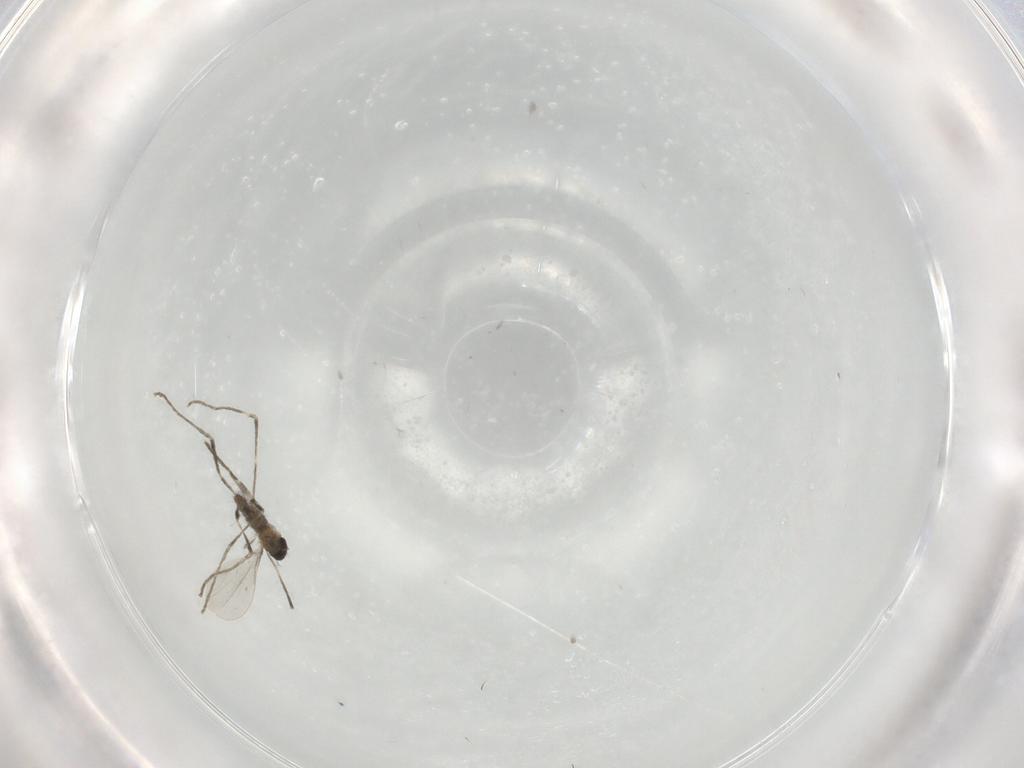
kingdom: Animalia
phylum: Arthropoda
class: Insecta
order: Diptera
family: Cecidomyiidae
